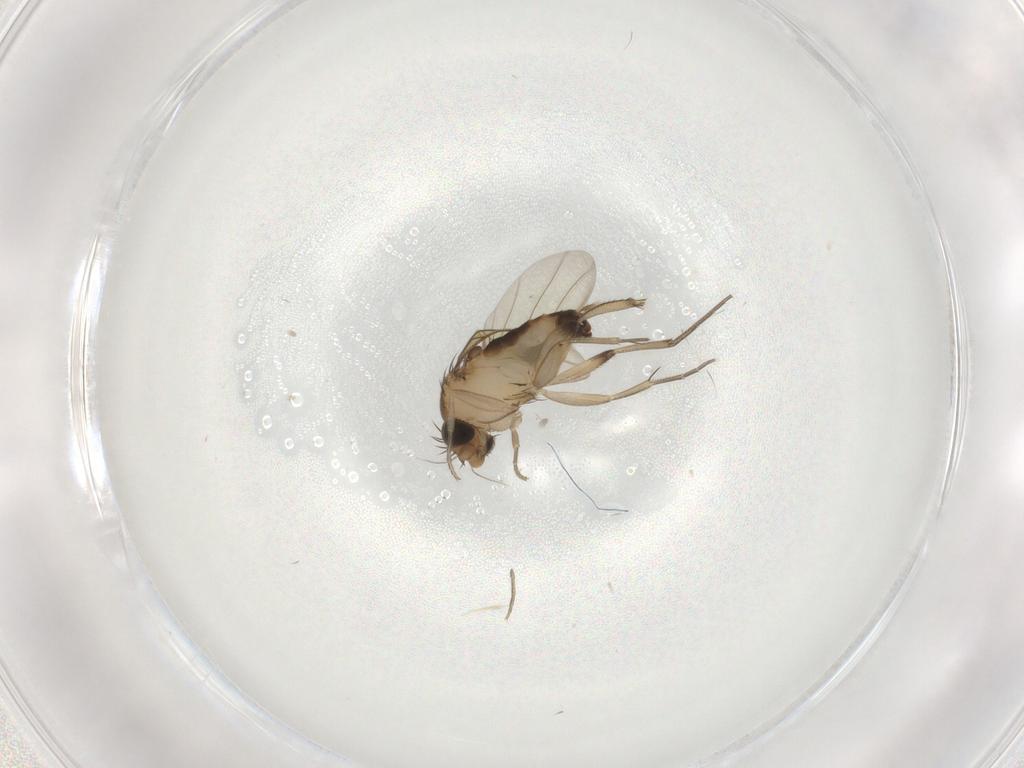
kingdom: Animalia
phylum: Arthropoda
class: Insecta
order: Diptera
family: Phoridae
